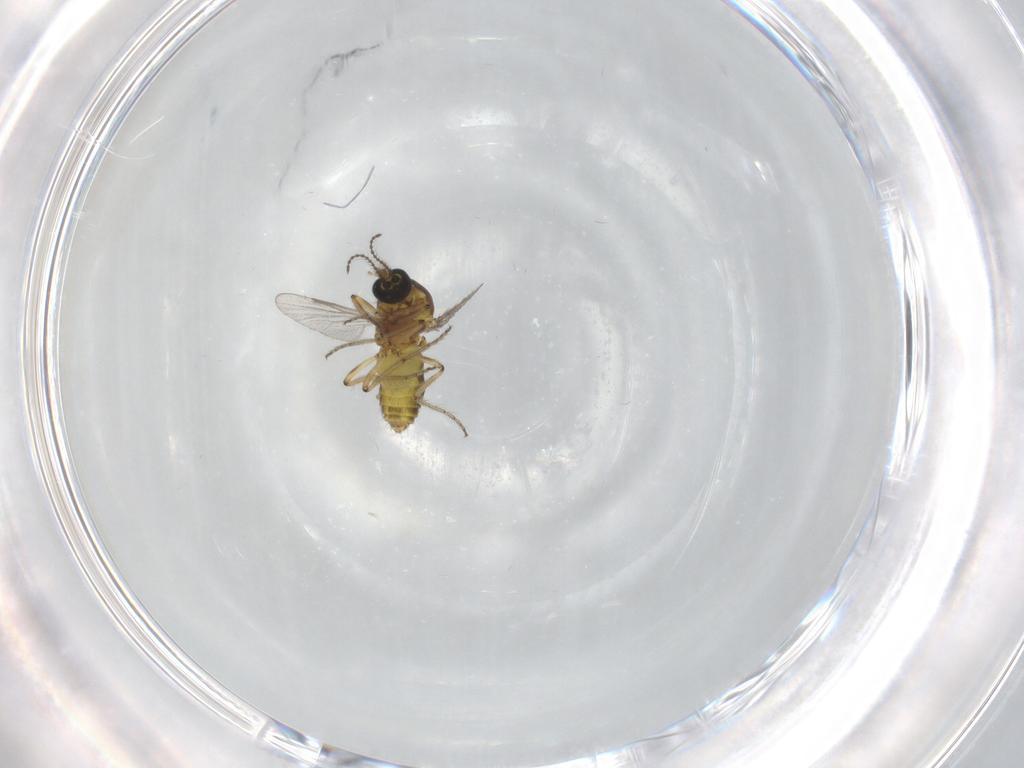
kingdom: Animalia
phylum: Arthropoda
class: Insecta
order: Diptera
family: Ceratopogonidae
